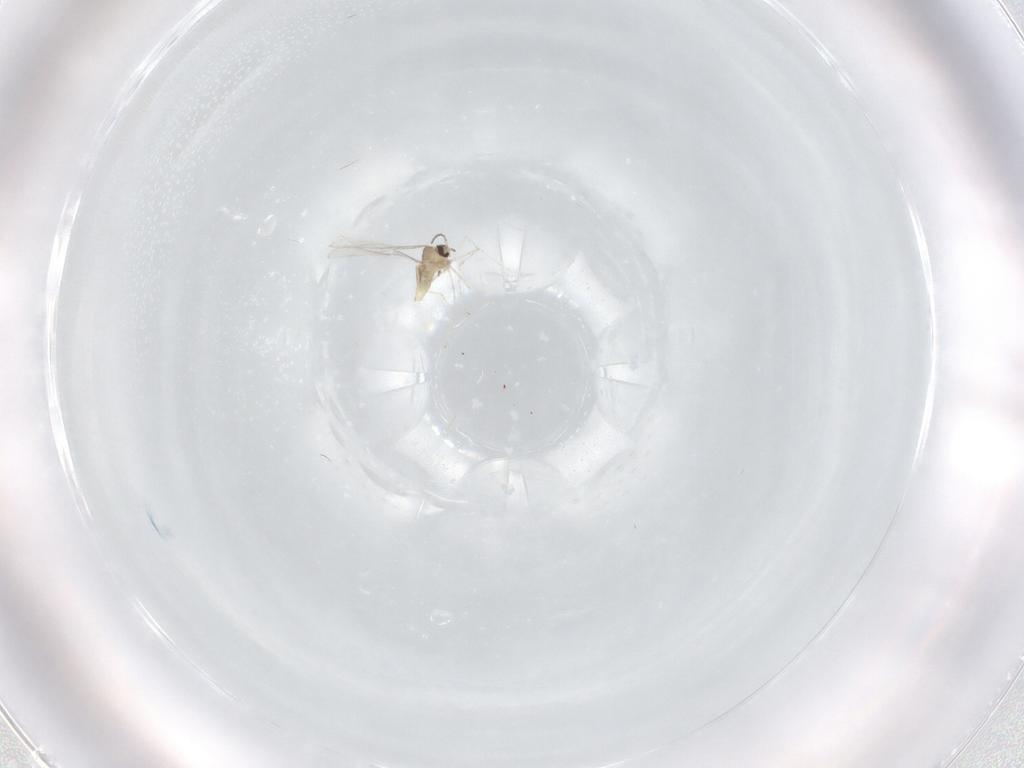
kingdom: Animalia
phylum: Arthropoda
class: Insecta
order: Diptera
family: Cecidomyiidae
